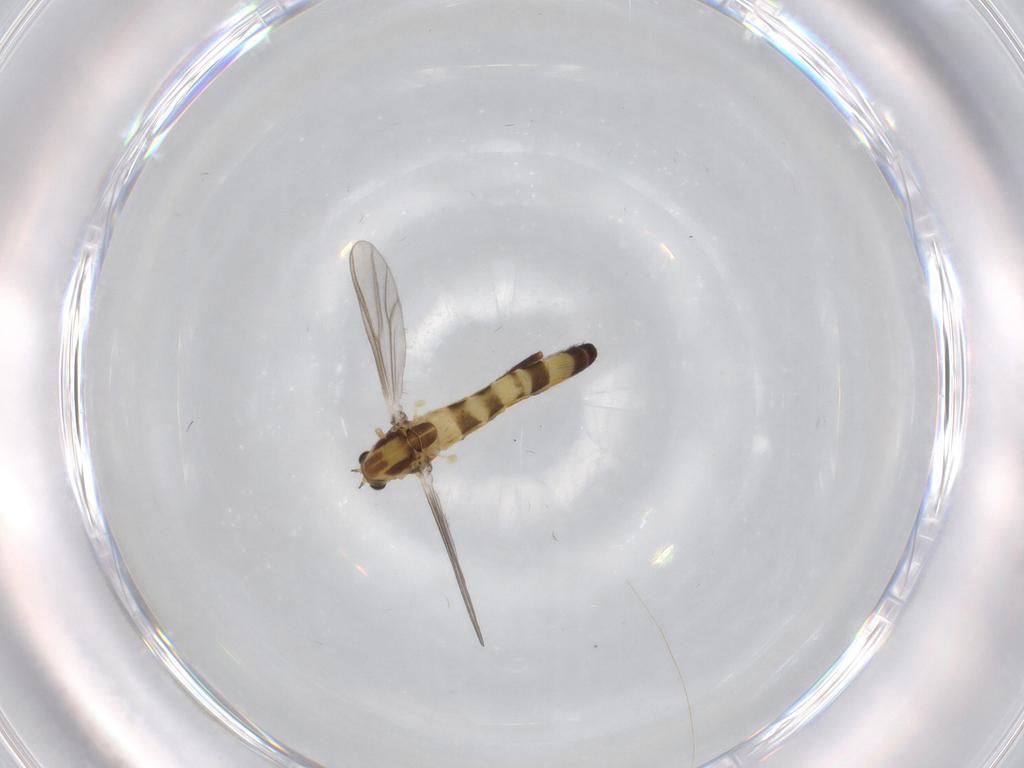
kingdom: Animalia
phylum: Arthropoda
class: Insecta
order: Diptera
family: Chironomidae
